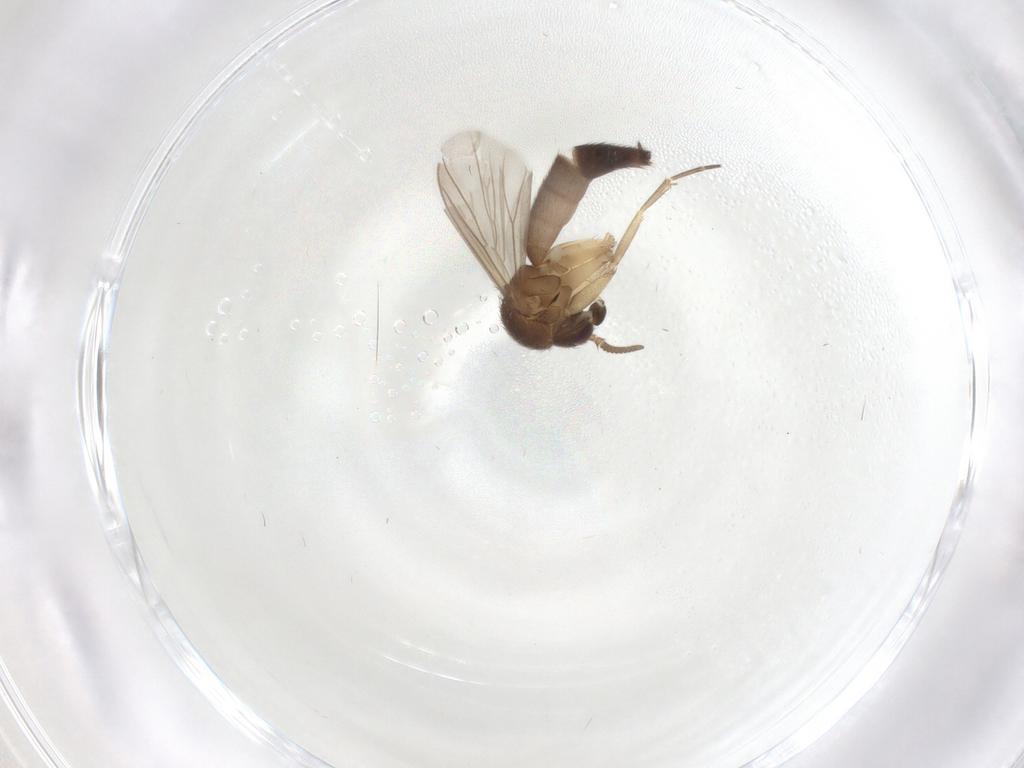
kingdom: Animalia
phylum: Arthropoda
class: Insecta
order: Diptera
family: Mycetophilidae
